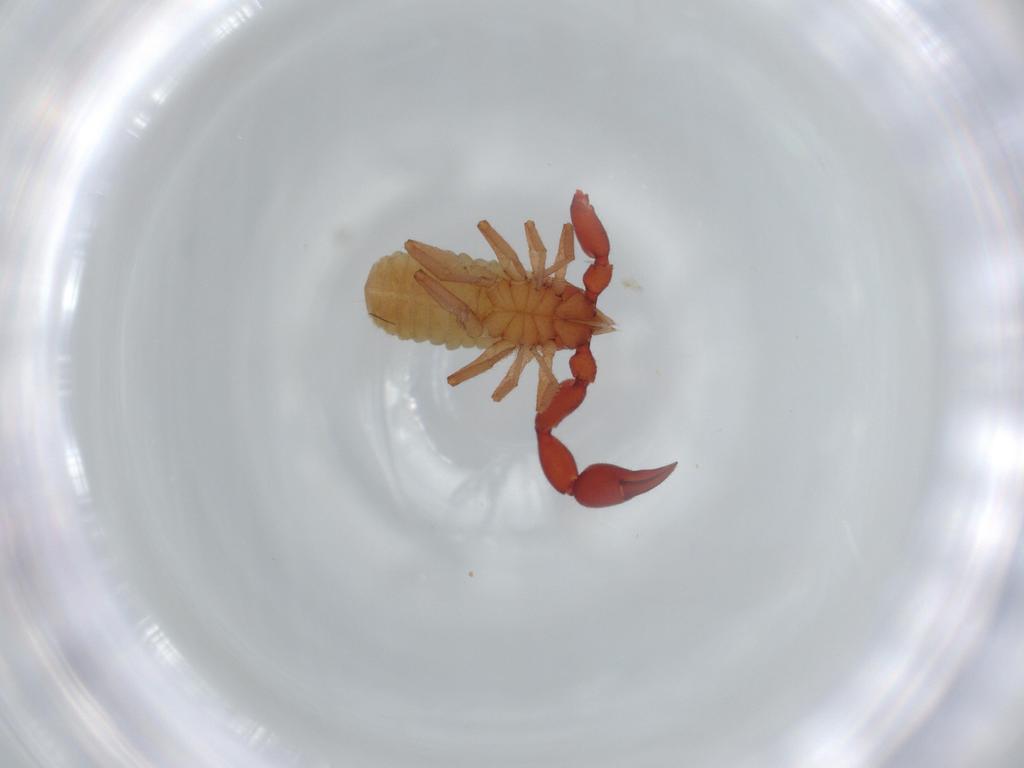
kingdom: Animalia
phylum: Arthropoda
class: Arachnida
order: Pseudoscorpiones
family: Chernetidae
